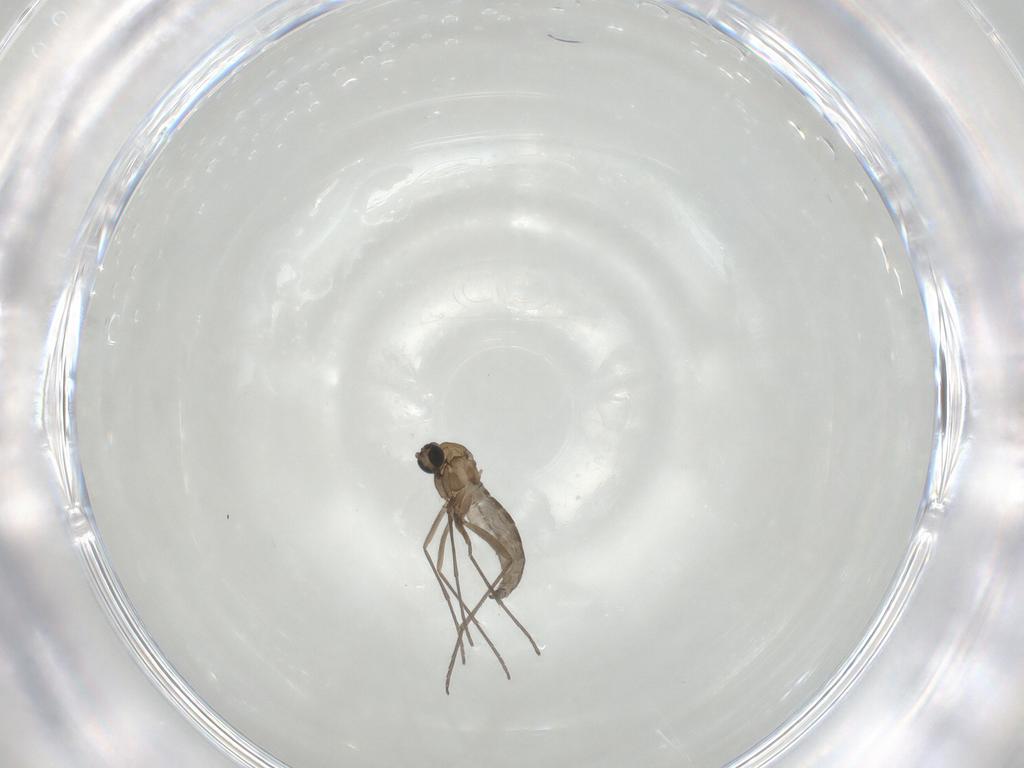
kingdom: Animalia
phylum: Arthropoda
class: Insecta
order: Diptera
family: Sciaridae
